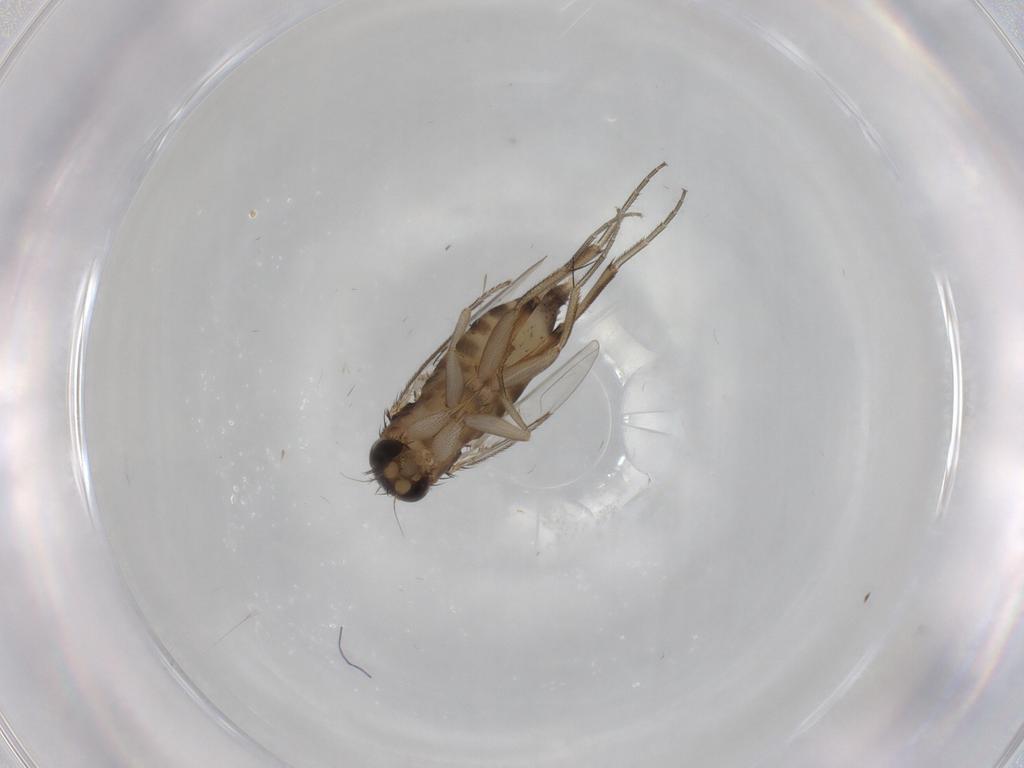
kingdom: Animalia
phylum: Arthropoda
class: Insecta
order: Diptera
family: Phoridae
